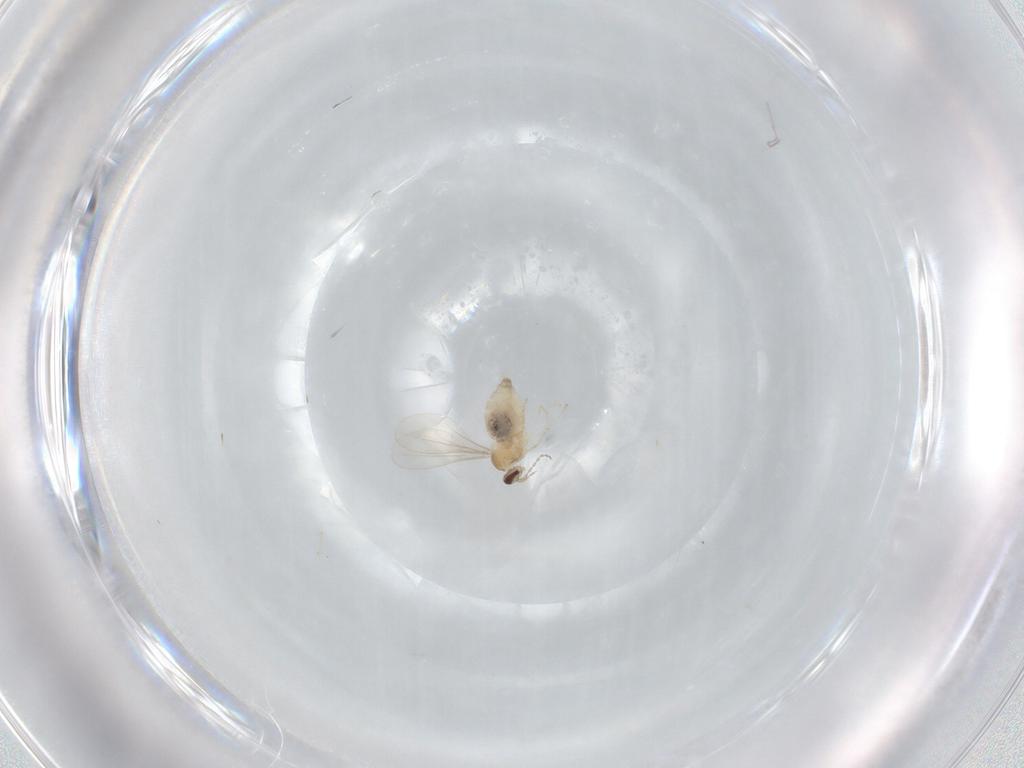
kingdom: Animalia
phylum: Arthropoda
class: Insecta
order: Diptera
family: Cecidomyiidae
